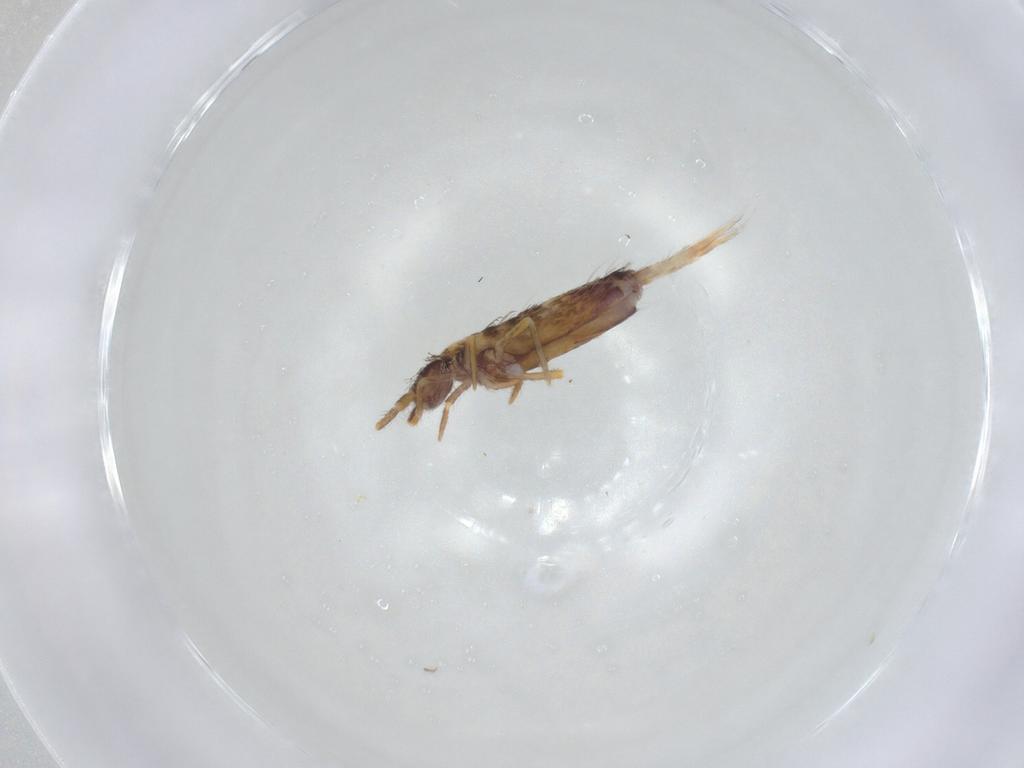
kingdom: Animalia
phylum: Arthropoda
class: Collembola
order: Entomobryomorpha
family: Entomobryidae
